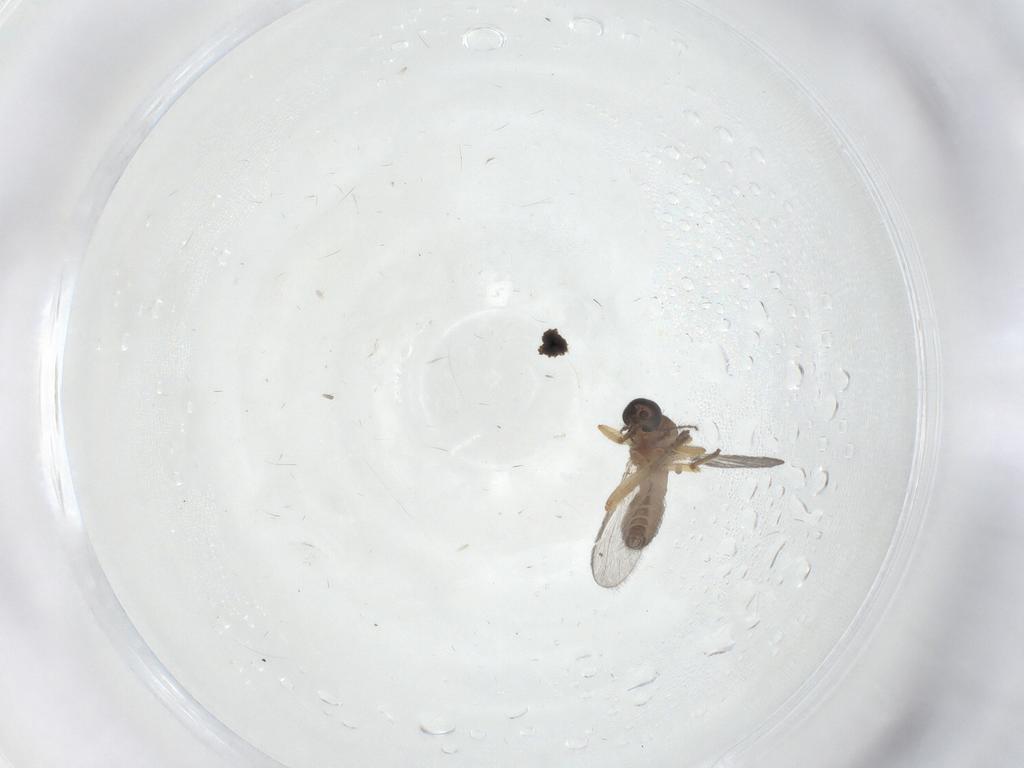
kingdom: Animalia
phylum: Arthropoda
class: Insecta
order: Diptera
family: Ceratopogonidae
